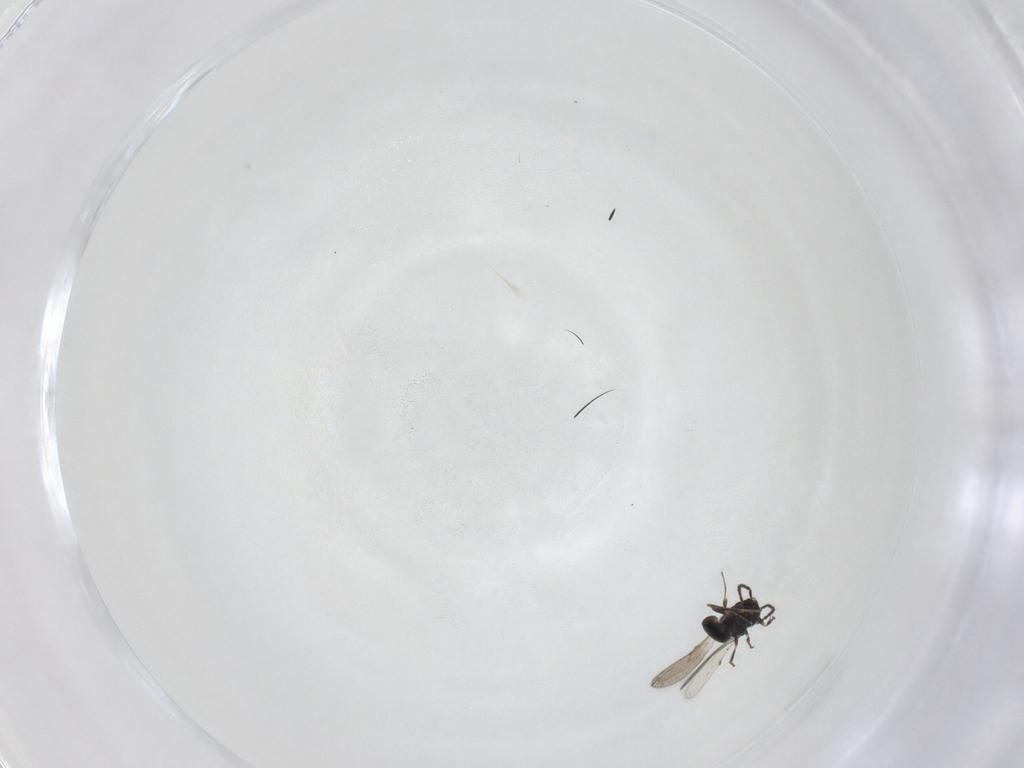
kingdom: Animalia
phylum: Arthropoda
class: Insecta
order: Hymenoptera
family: Scelionidae
